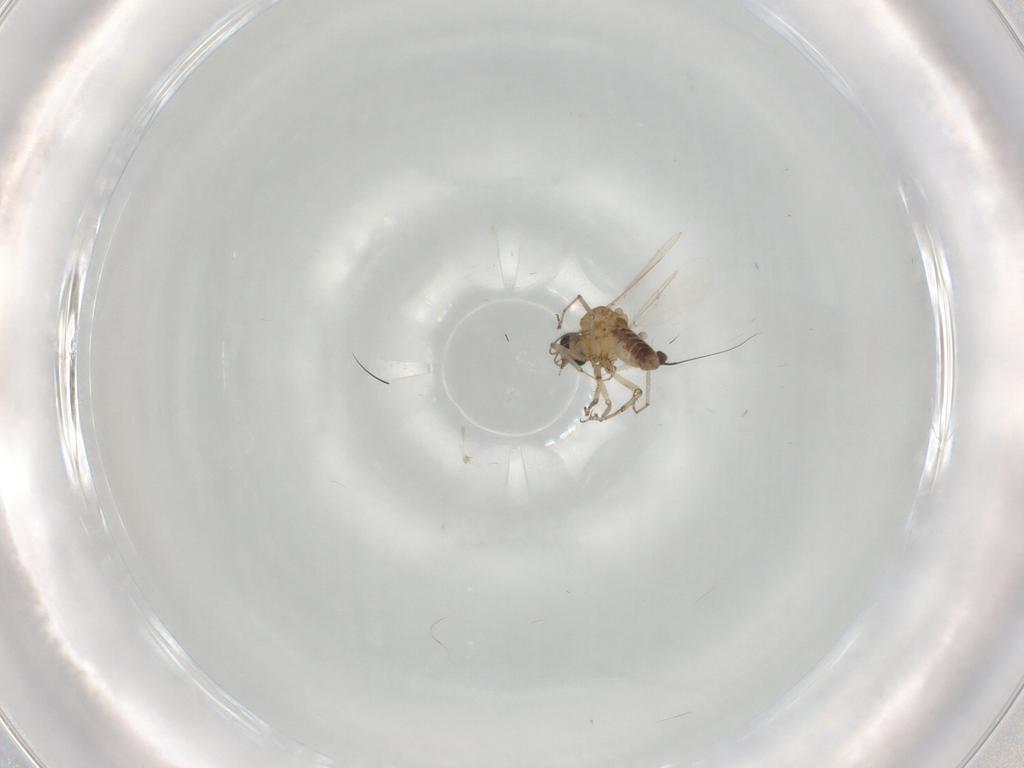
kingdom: Animalia
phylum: Arthropoda
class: Insecta
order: Diptera
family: Ceratopogonidae
